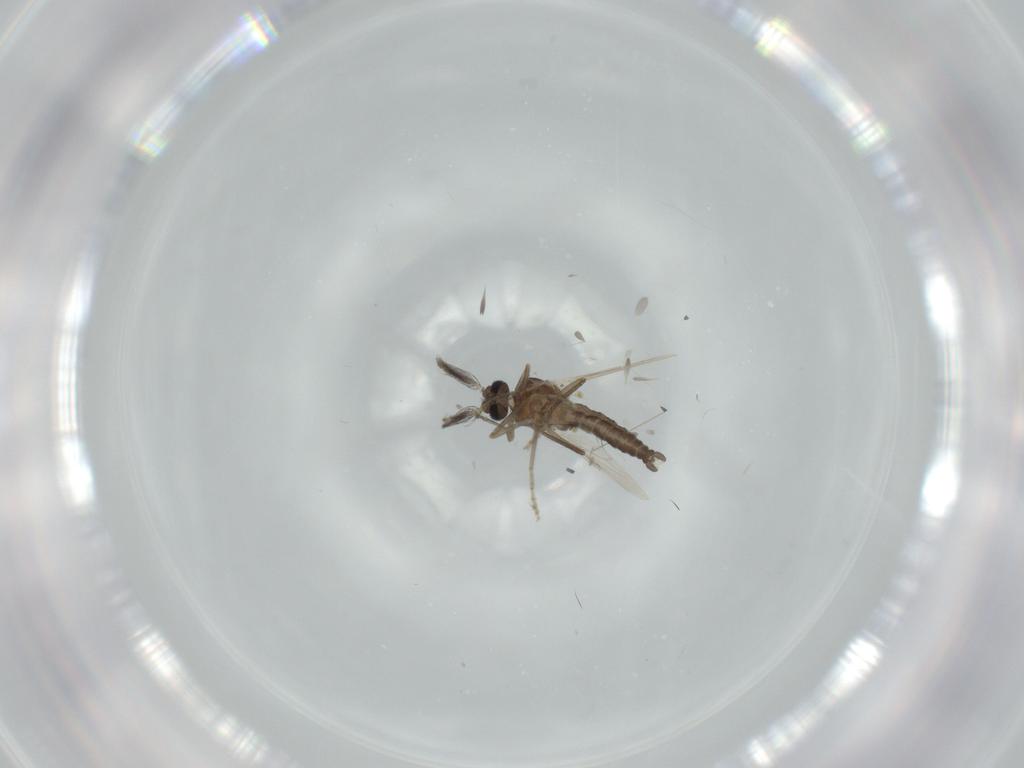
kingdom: Animalia
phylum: Arthropoda
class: Insecta
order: Diptera
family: Ceratopogonidae
